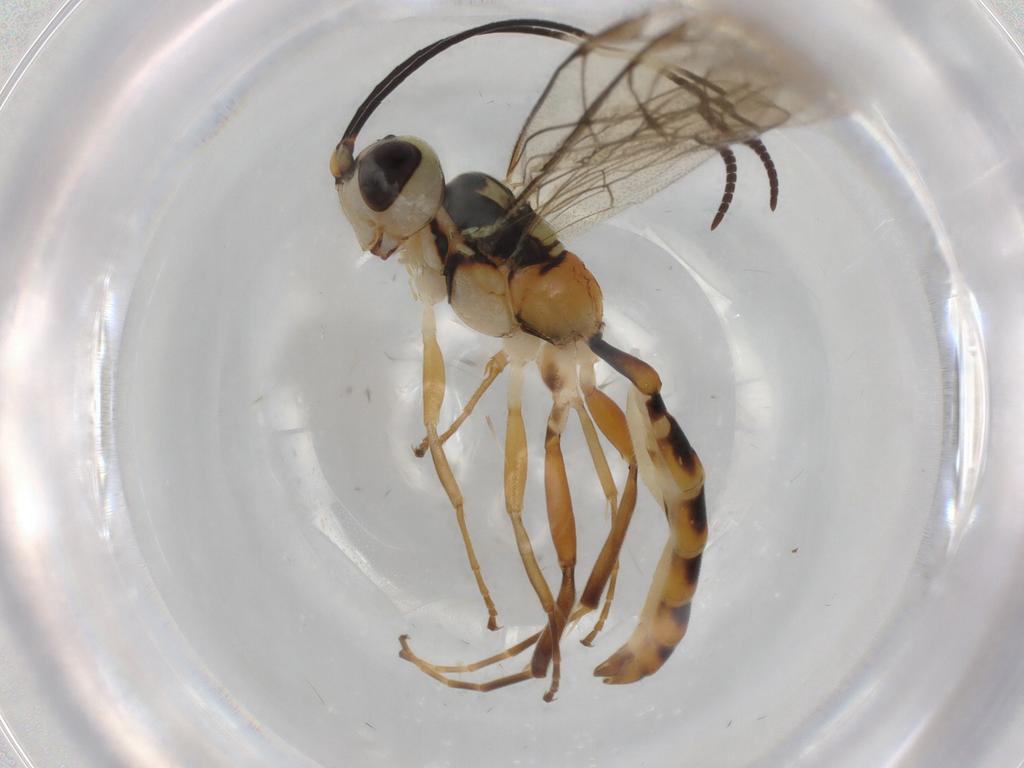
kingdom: Animalia
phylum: Arthropoda
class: Insecta
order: Hymenoptera
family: Ichneumonidae
